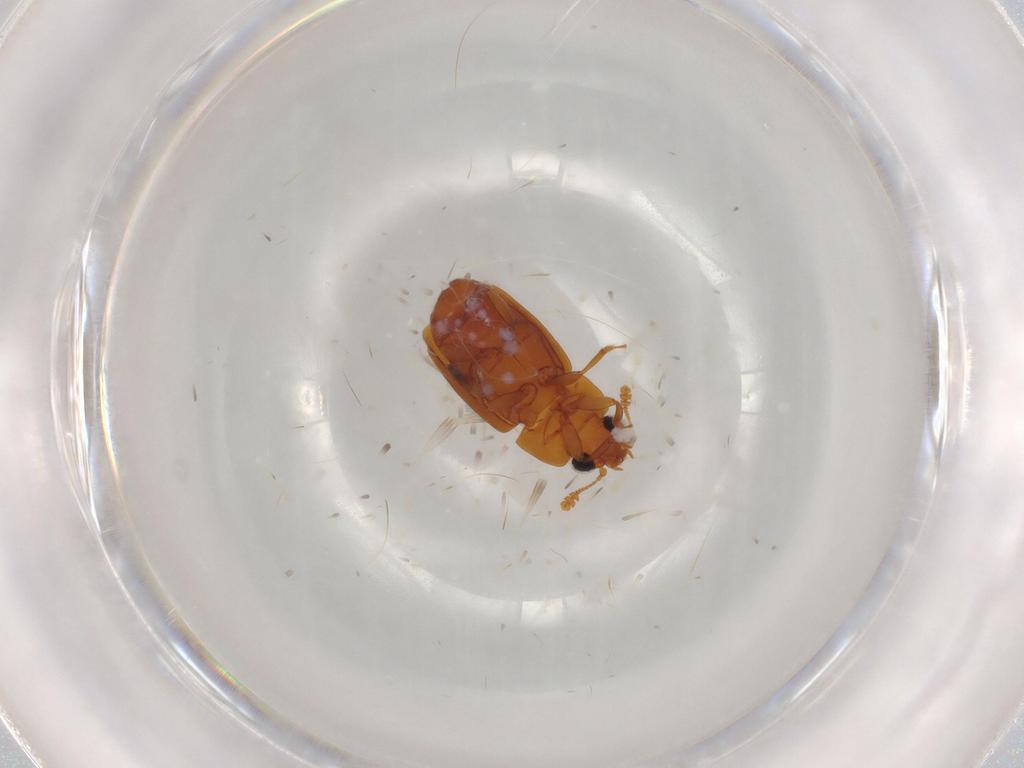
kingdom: Animalia
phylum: Arthropoda
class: Insecta
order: Coleoptera
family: Nitidulidae
